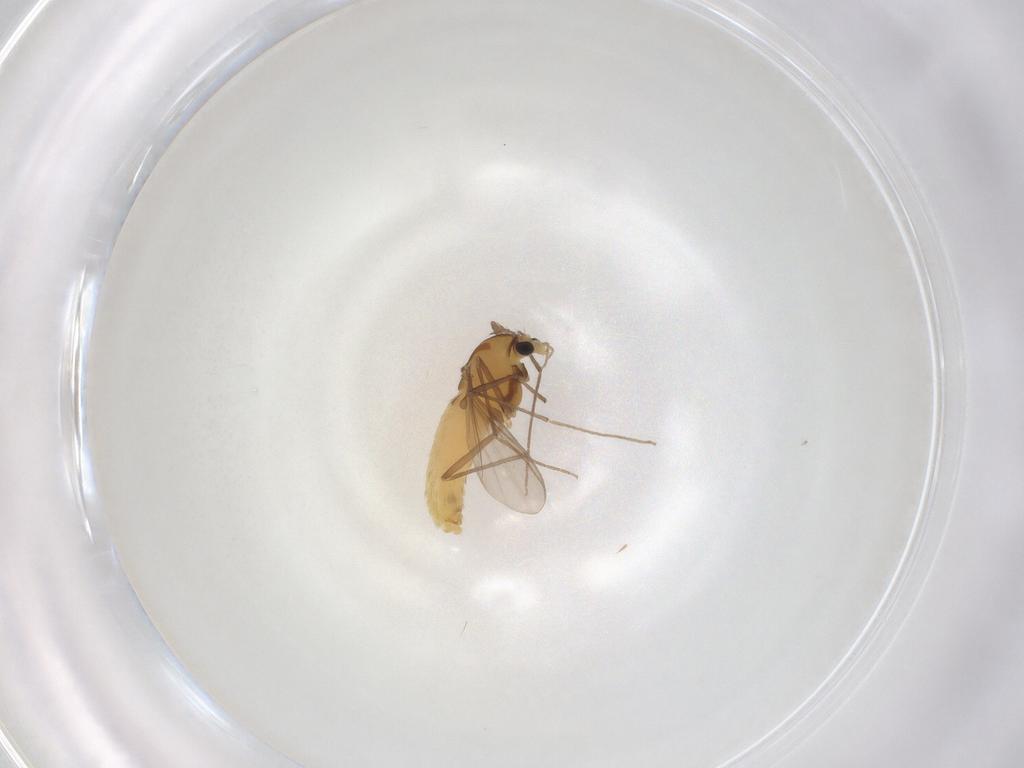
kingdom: Animalia
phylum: Arthropoda
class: Insecta
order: Diptera
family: Chironomidae
